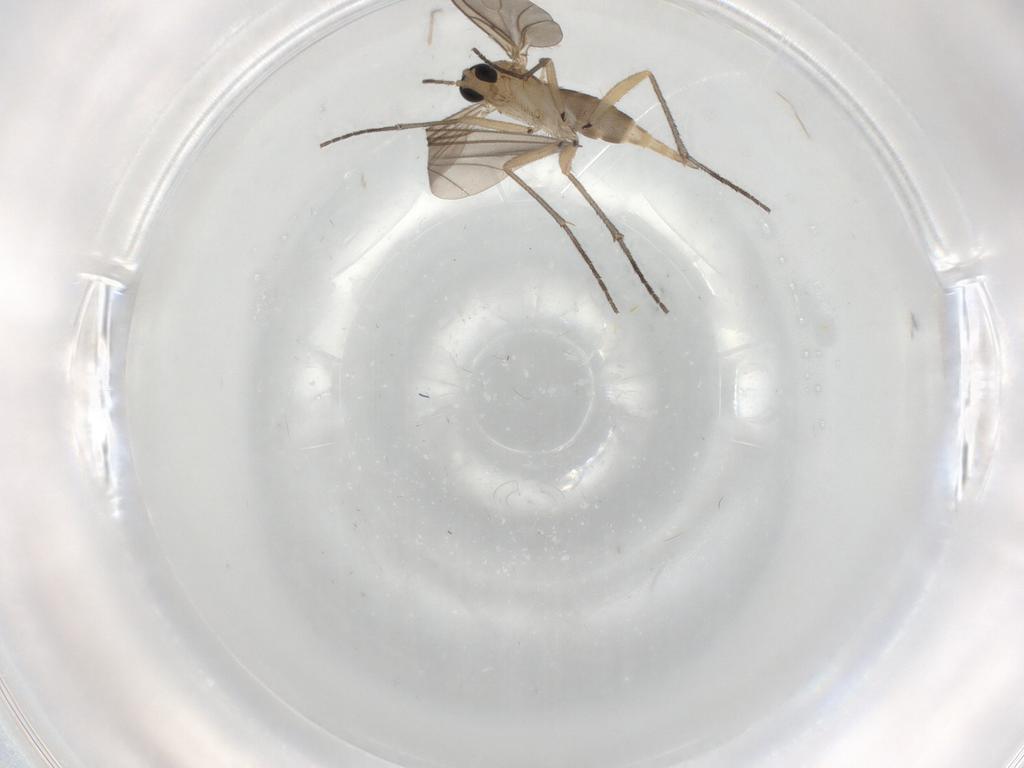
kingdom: Animalia
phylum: Arthropoda
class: Insecta
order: Diptera
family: Sciaridae
